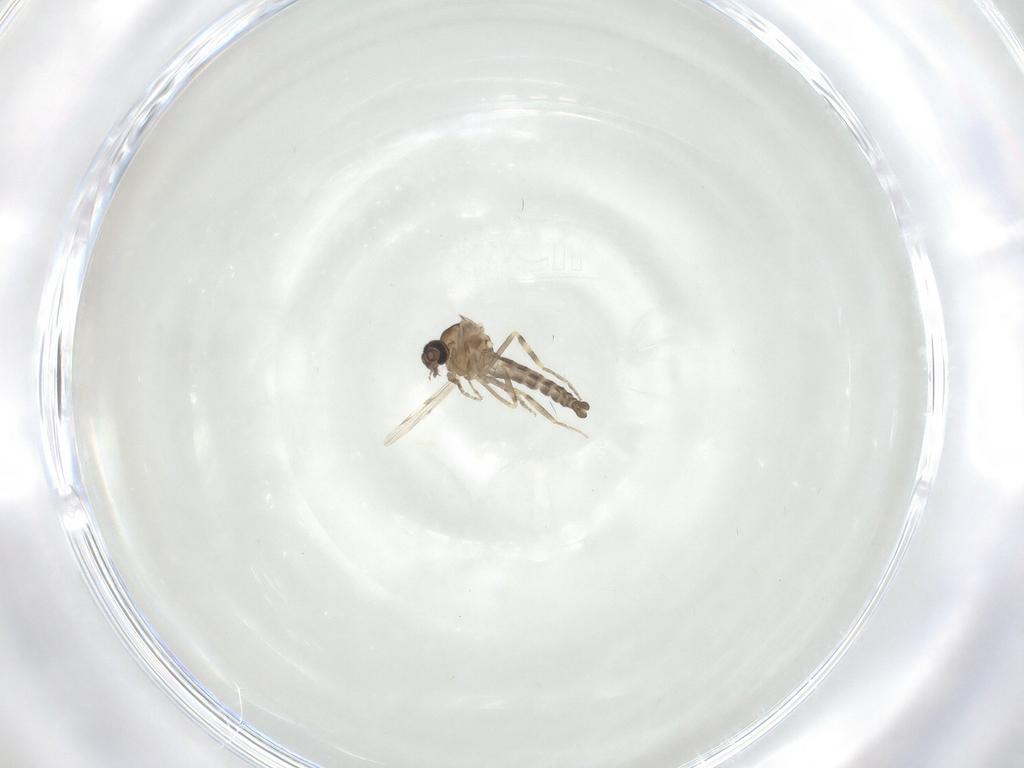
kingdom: Animalia
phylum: Arthropoda
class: Insecta
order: Diptera
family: Ceratopogonidae
